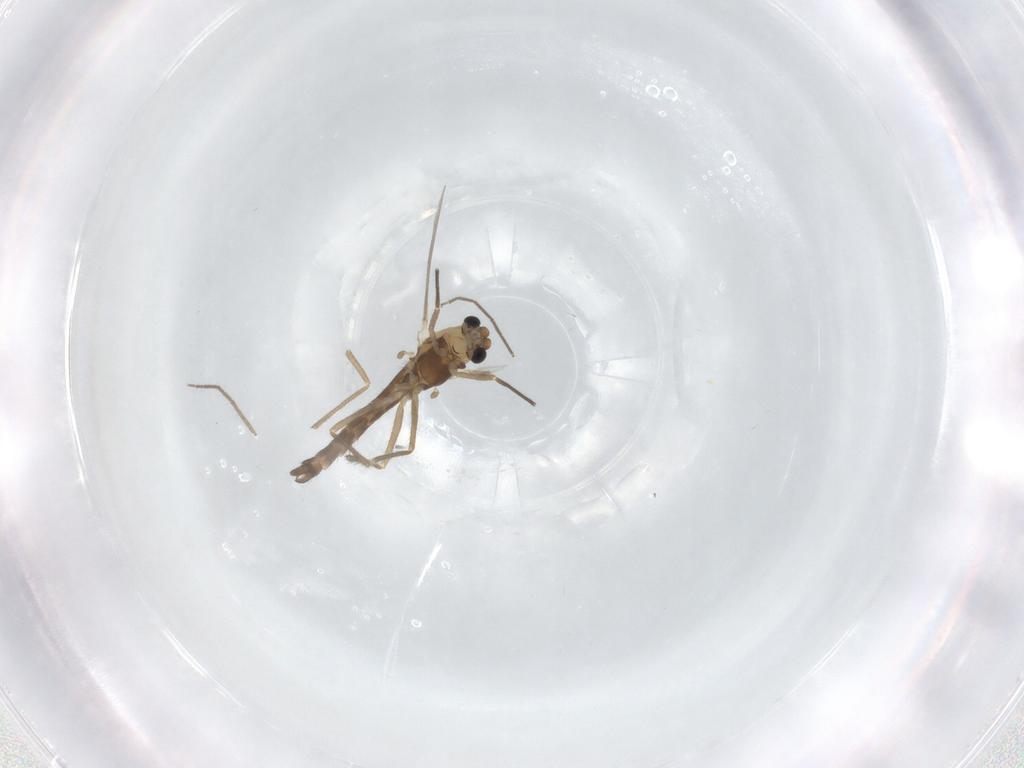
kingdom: Animalia
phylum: Arthropoda
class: Insecta
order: Diptera
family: Chironomidae
